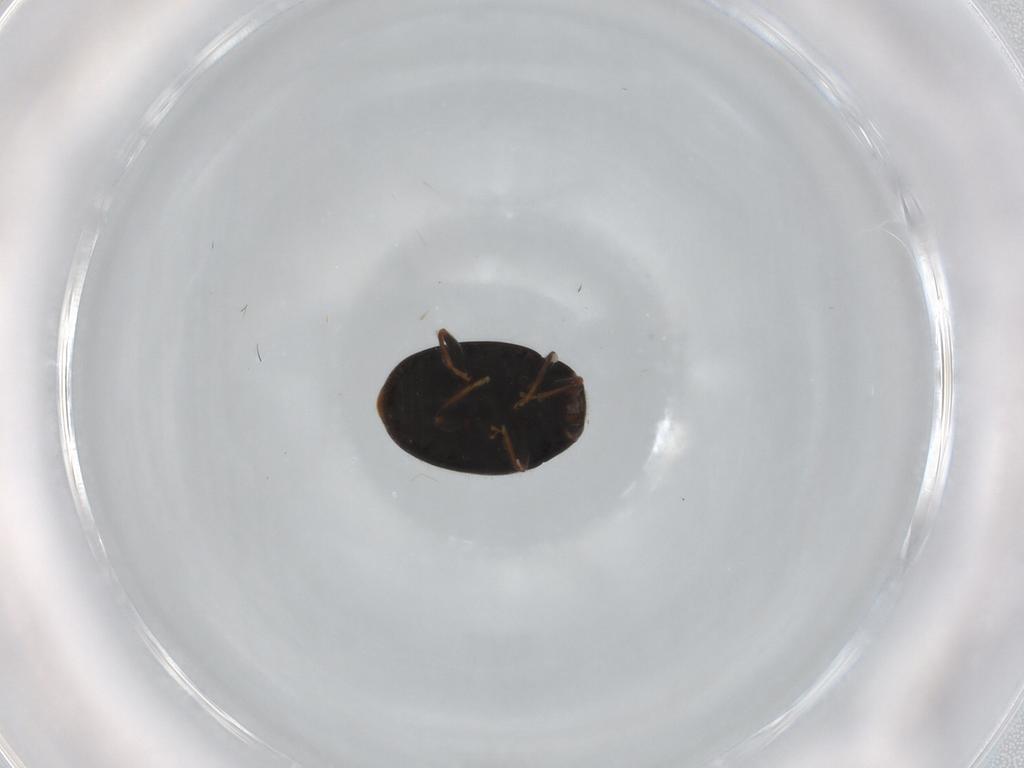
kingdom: Animalia
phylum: Arthropoda
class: Insecta
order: Coleoptera
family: Coccinellidae
